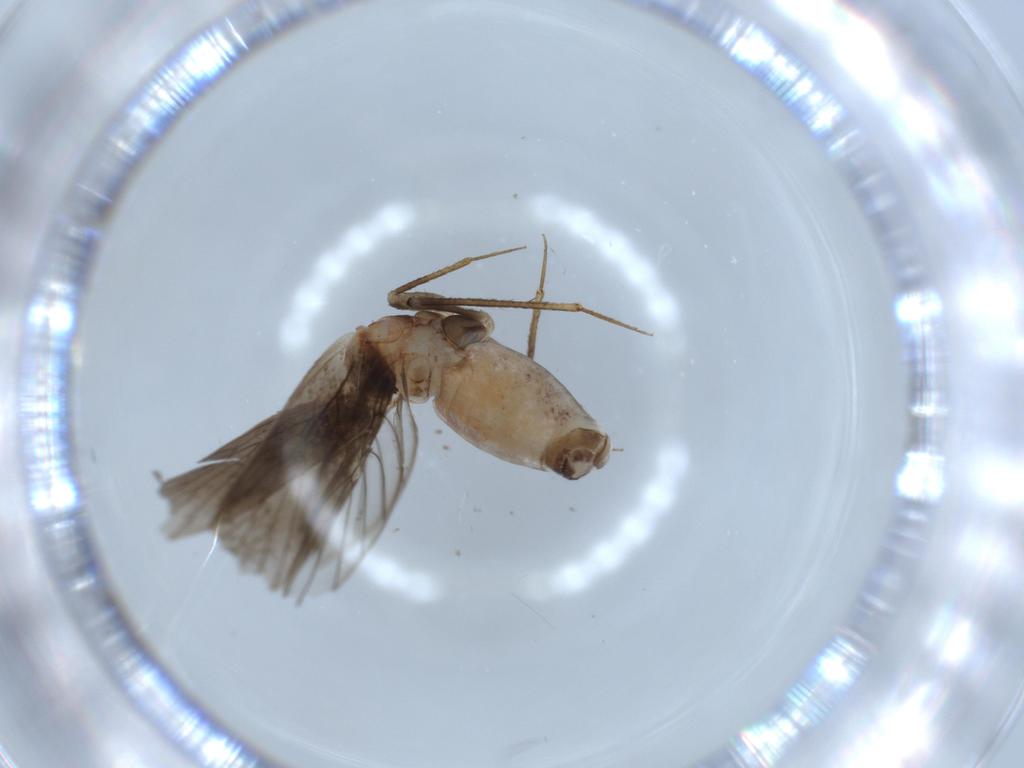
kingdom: Animalia
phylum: Arthropoda
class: Insecta
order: Psocodea
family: Lepidopsocidae
